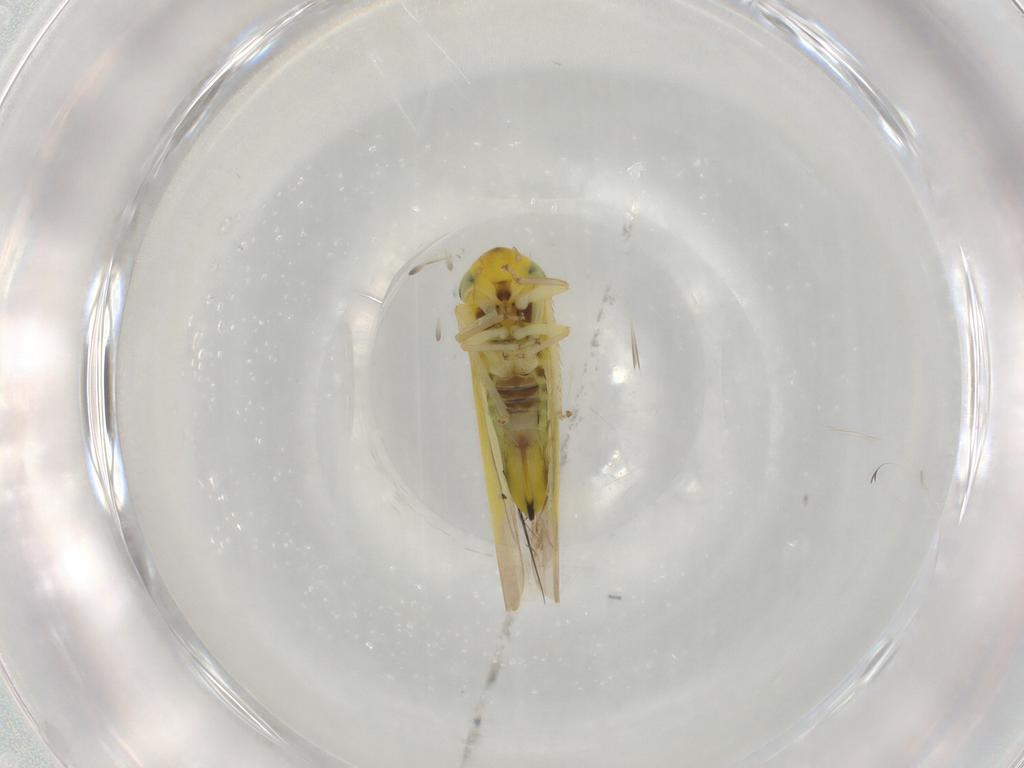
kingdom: Animalia
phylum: Arthropoda
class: Insecta
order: Hemiptera
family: Cicadellidae
